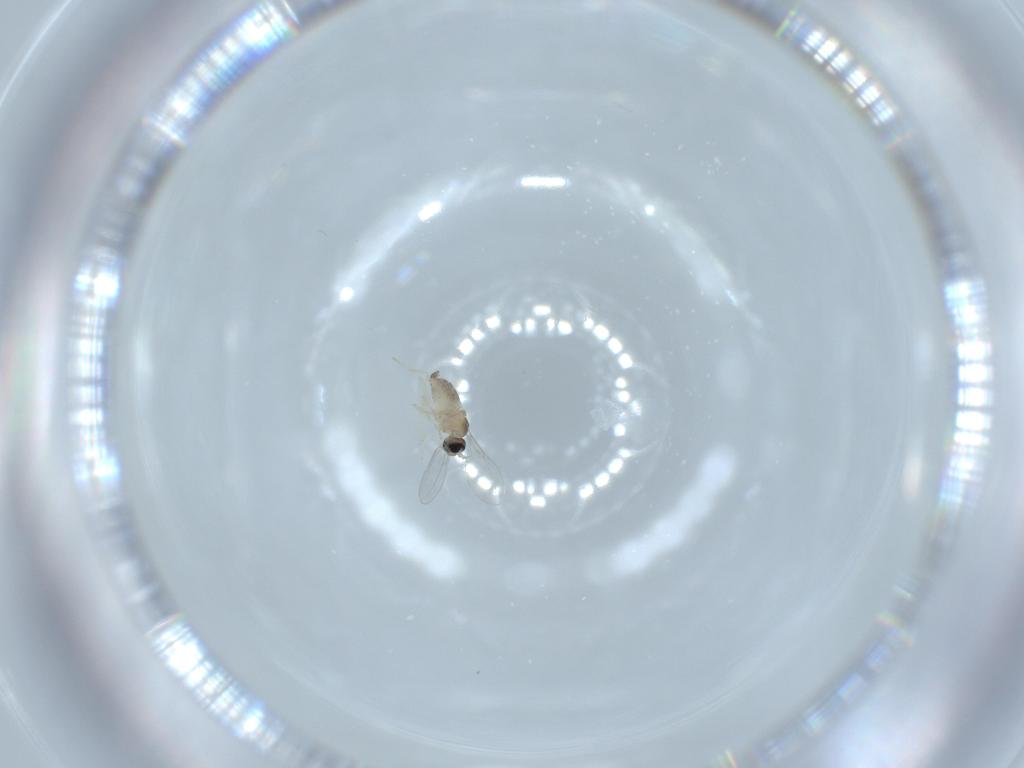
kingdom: Animalia
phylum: Arthropoda
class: Insecta
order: Diptera
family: Cecidomyiidae
